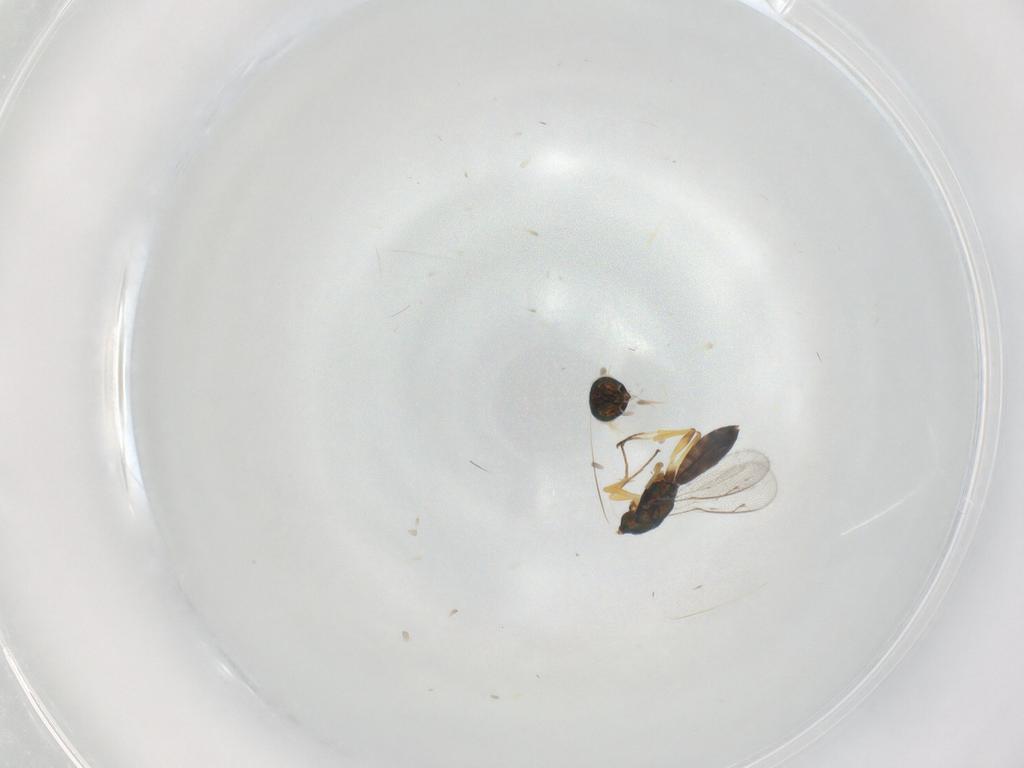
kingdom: Animalia
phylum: Arthropoda
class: Insecta
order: Hymenoptera
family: Eupelmidae
